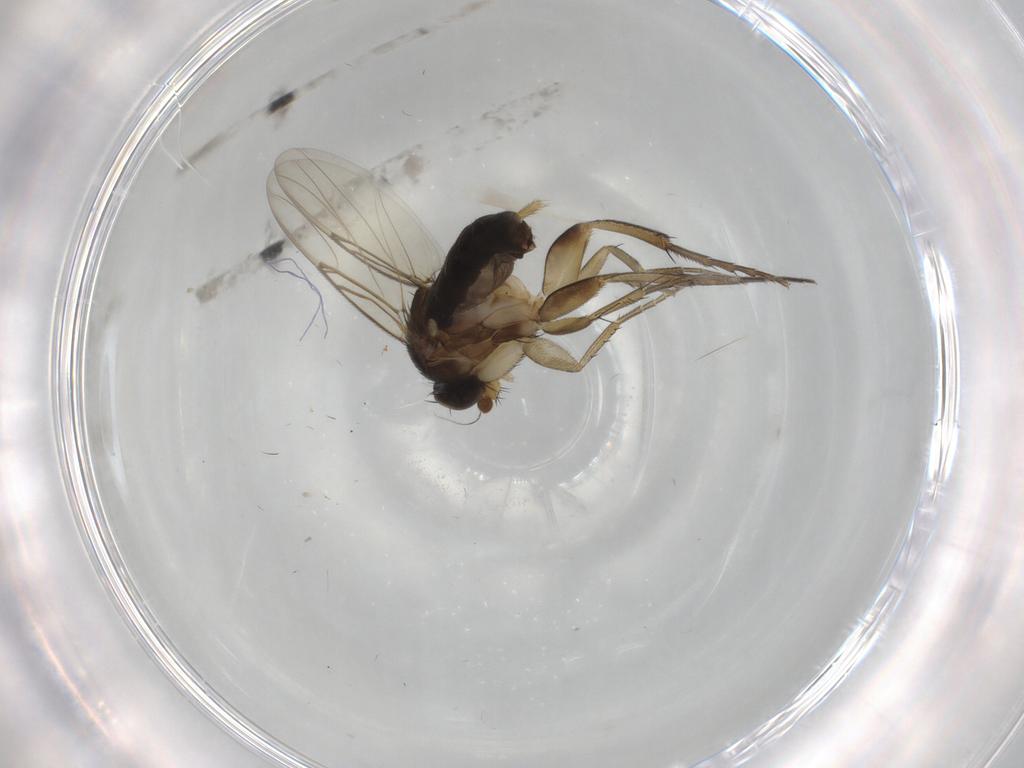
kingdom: Animalia
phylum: Arthropoda
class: Insecta
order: Diptera
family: Phoridae
